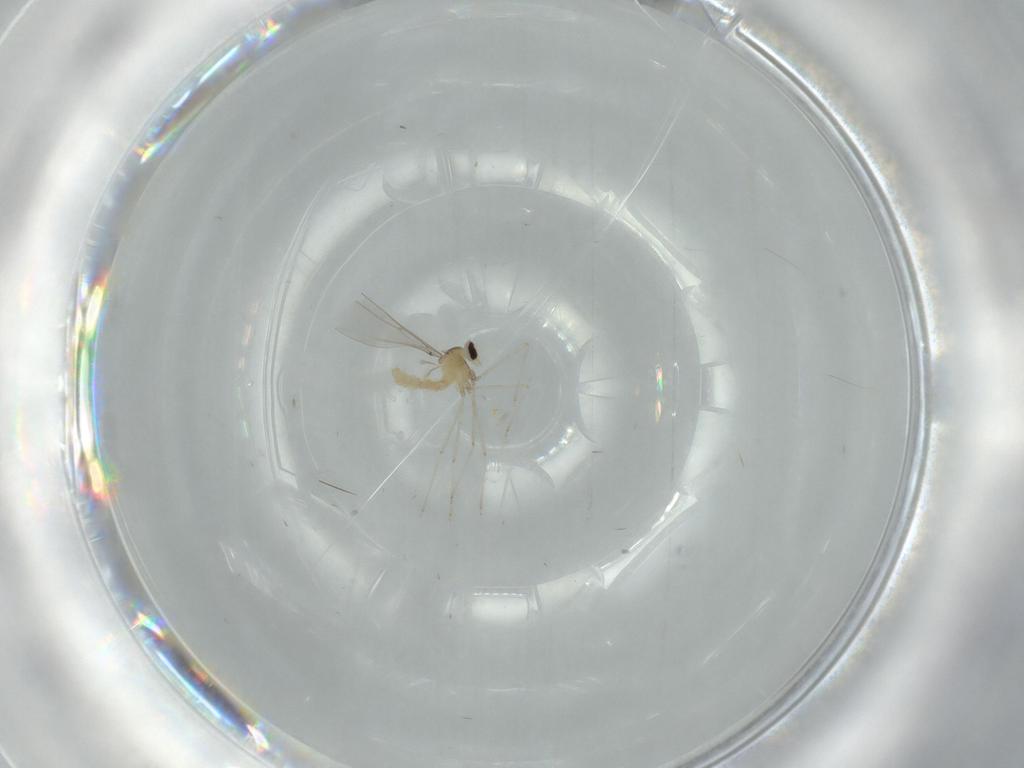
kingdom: Animalia
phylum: Arthropoda
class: Insecta
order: Diptera
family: Cecidomyiidae
